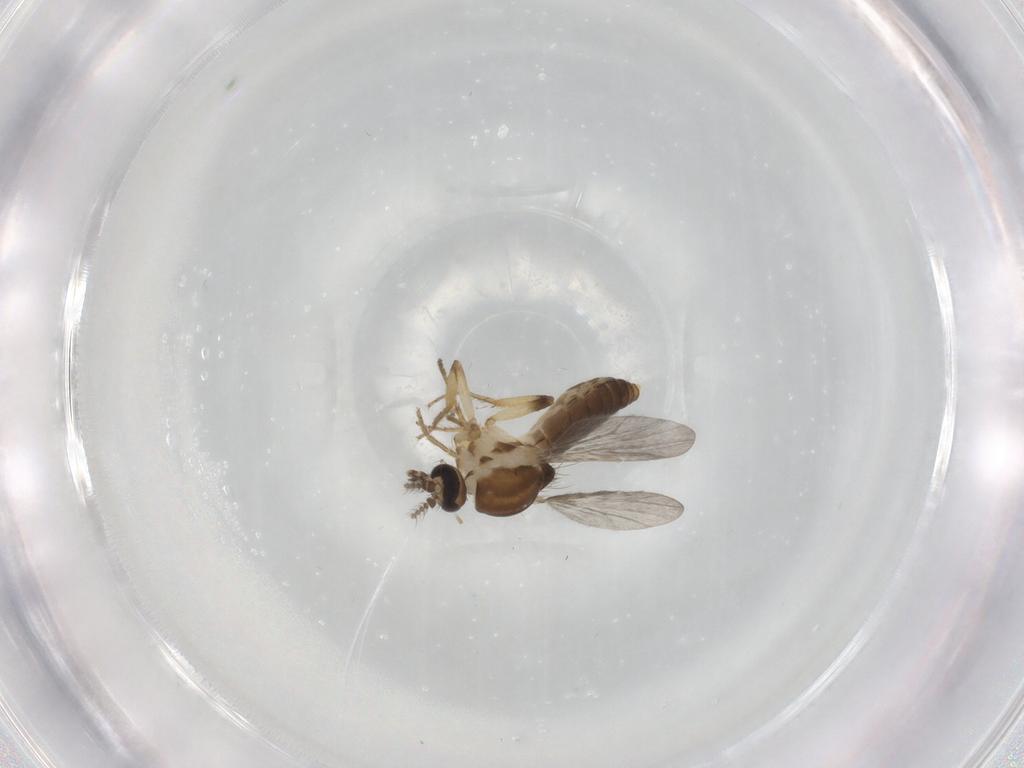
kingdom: Animalia
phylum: Arthropoda
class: Insecta
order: Diptera
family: Ceratopogonidae
